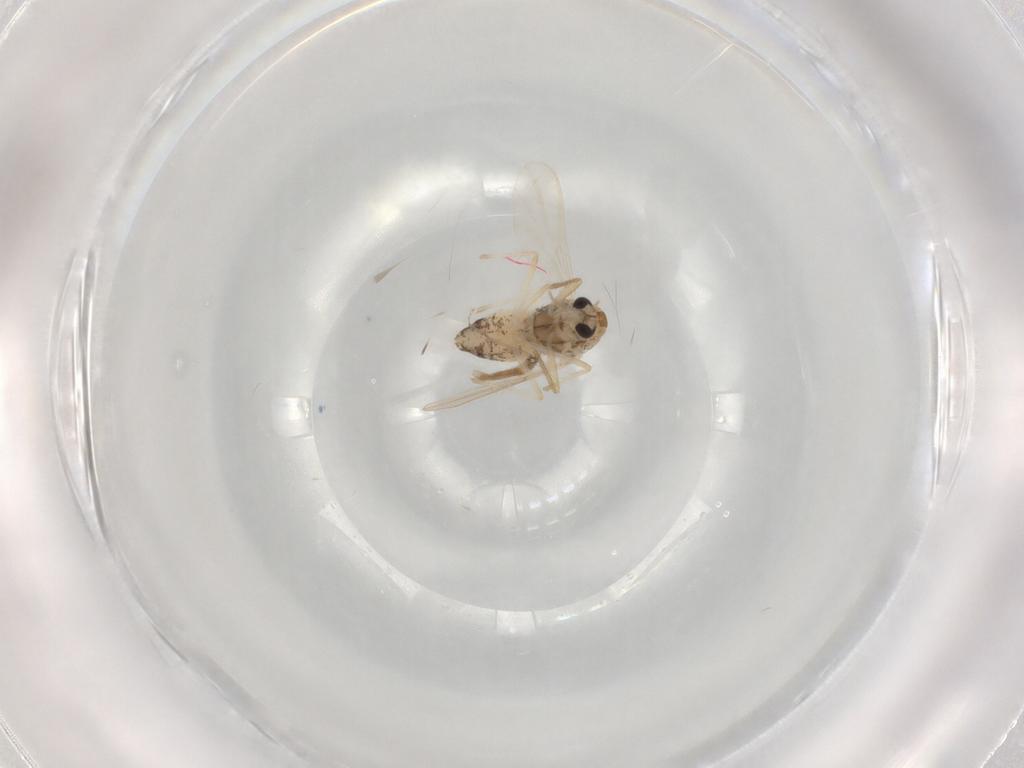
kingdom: Animalia
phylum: Arthropoda
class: Insecta
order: Diptera
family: Chironomidae
